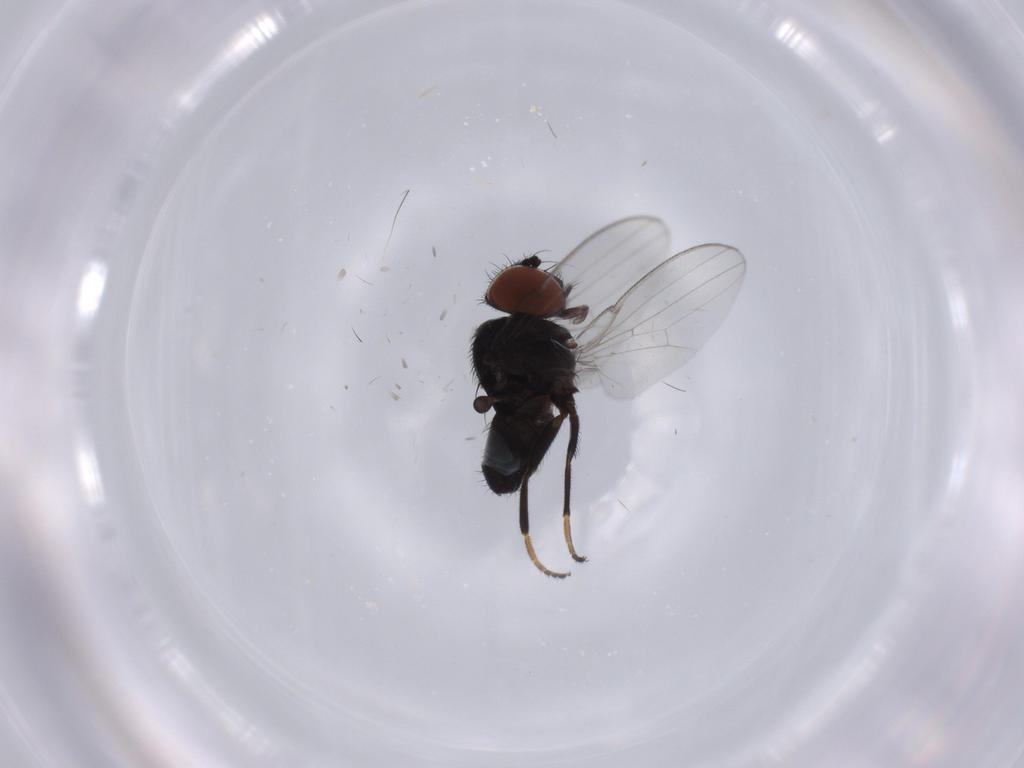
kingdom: Animalia
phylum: Arthropoda
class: Insecta
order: Diptera
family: Milichiidae
